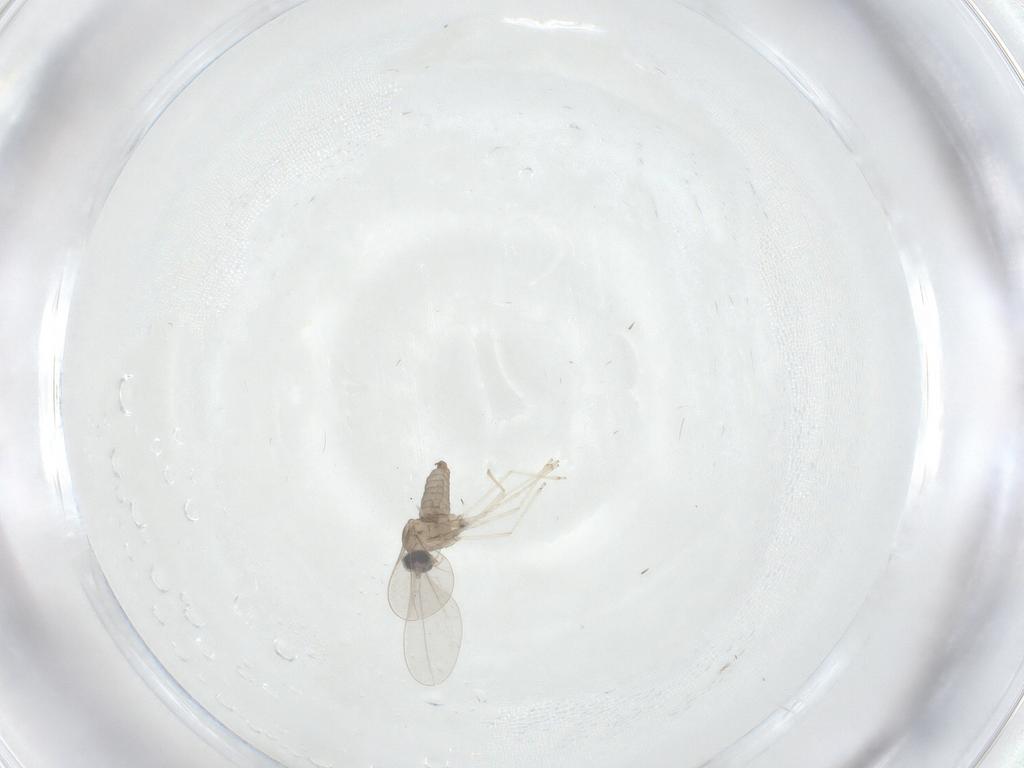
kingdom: Animalia
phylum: Arthropoda
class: Insecta
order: Diptera
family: Cecidomyiidae
